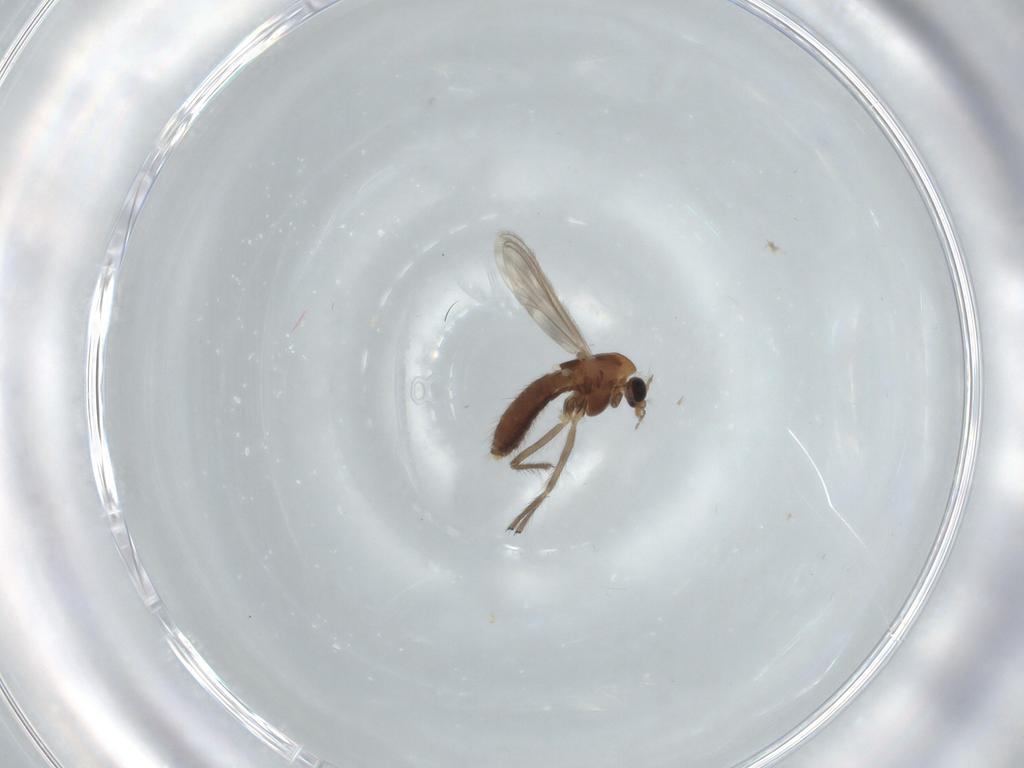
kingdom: Animalia
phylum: Arthropoda
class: Insecta
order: Diptera
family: Chironomidae
